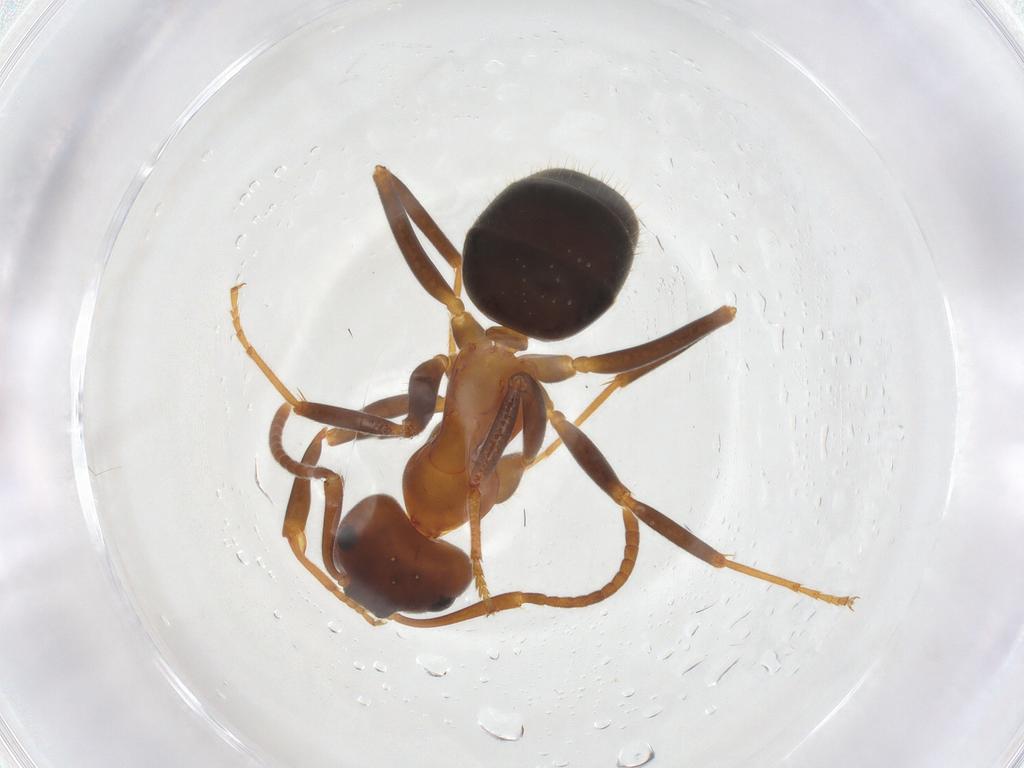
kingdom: Animalia
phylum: Arthropoda
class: Insecta
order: Hymenoptera
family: Formicidae
